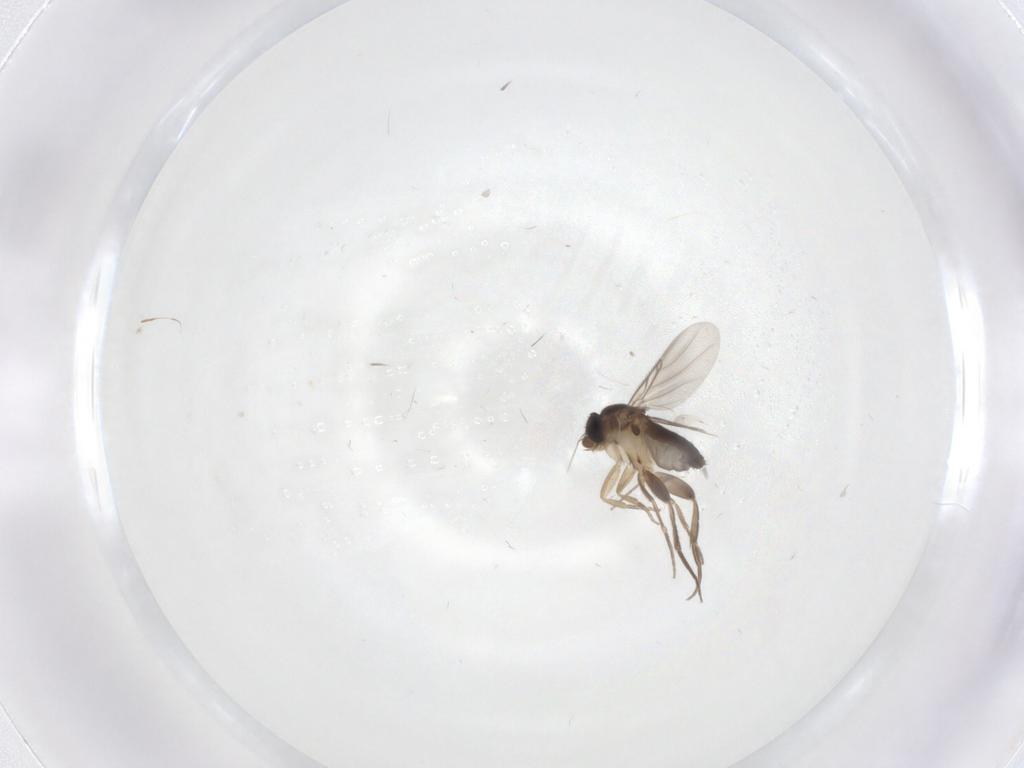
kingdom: Animalia
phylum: Arthropoda
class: Insecta
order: Diptera
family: Phoridae
